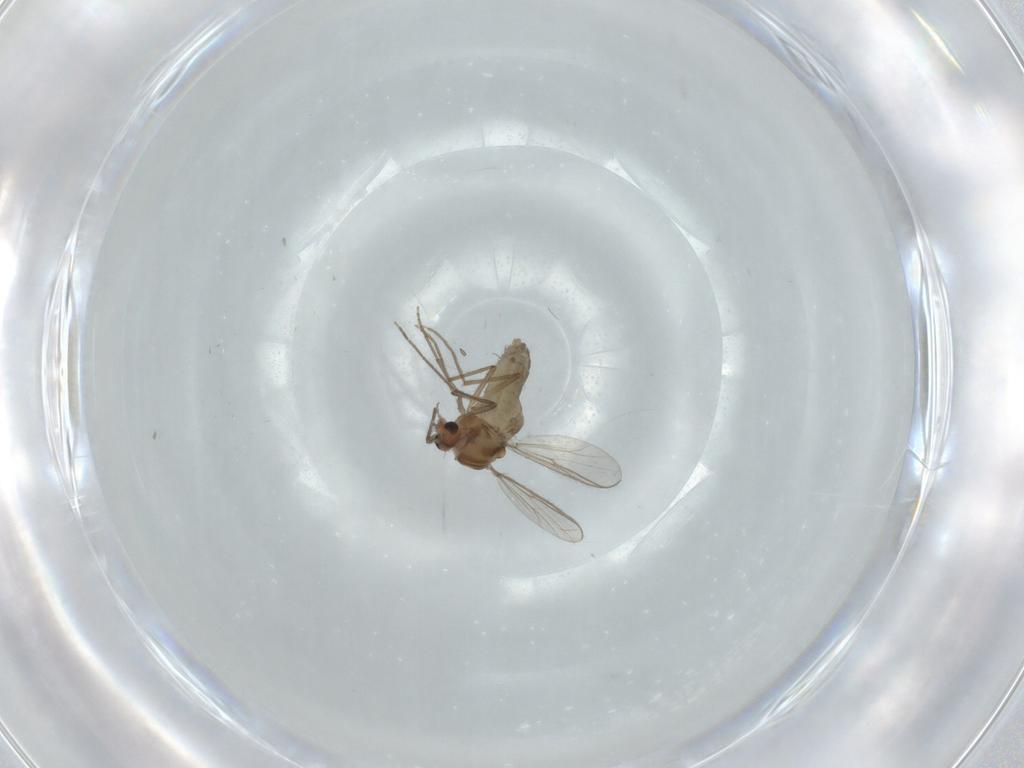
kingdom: Animalia
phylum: Arthropoda
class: Insecta
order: Diptera
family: Chironomidae
